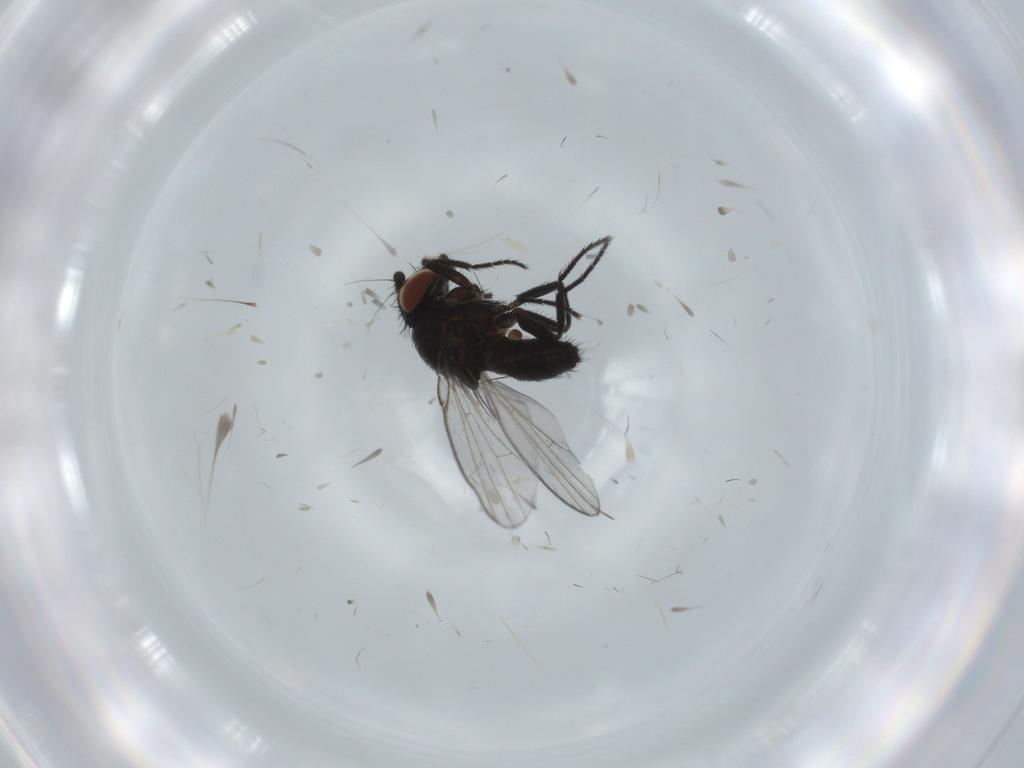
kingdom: Animalia
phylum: Arthropoda
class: Insecta
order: Diptera
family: Milichiidae
